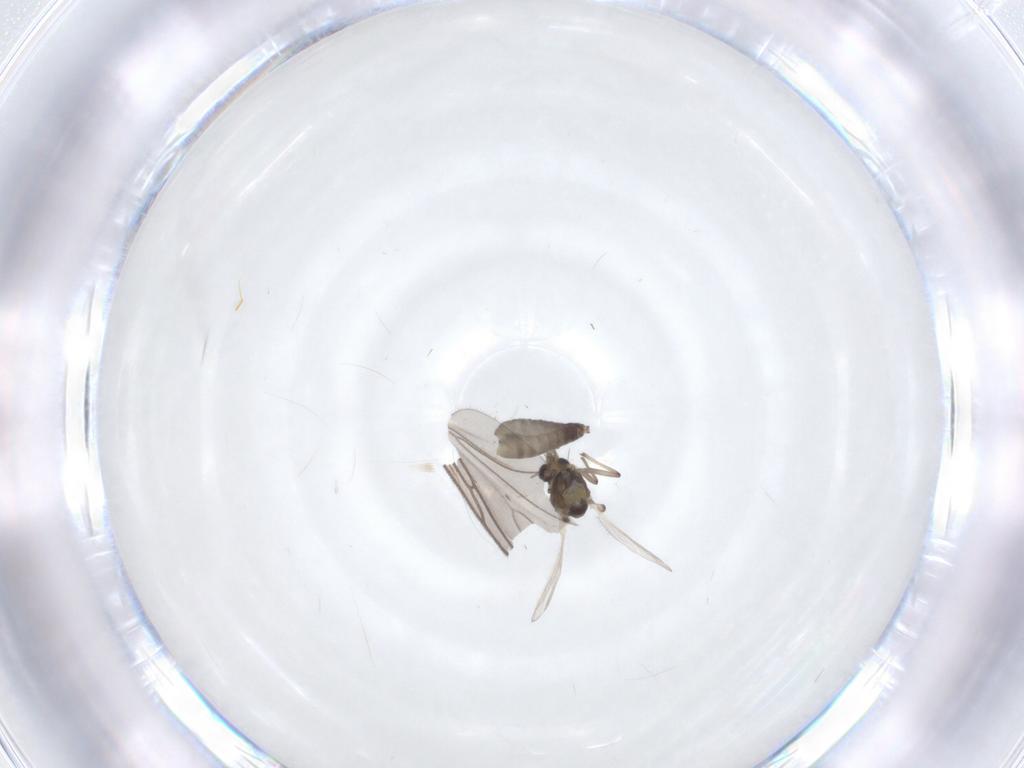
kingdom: Animalia
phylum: Arthropoda
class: Insecta
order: Diptera
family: Chironomidae
